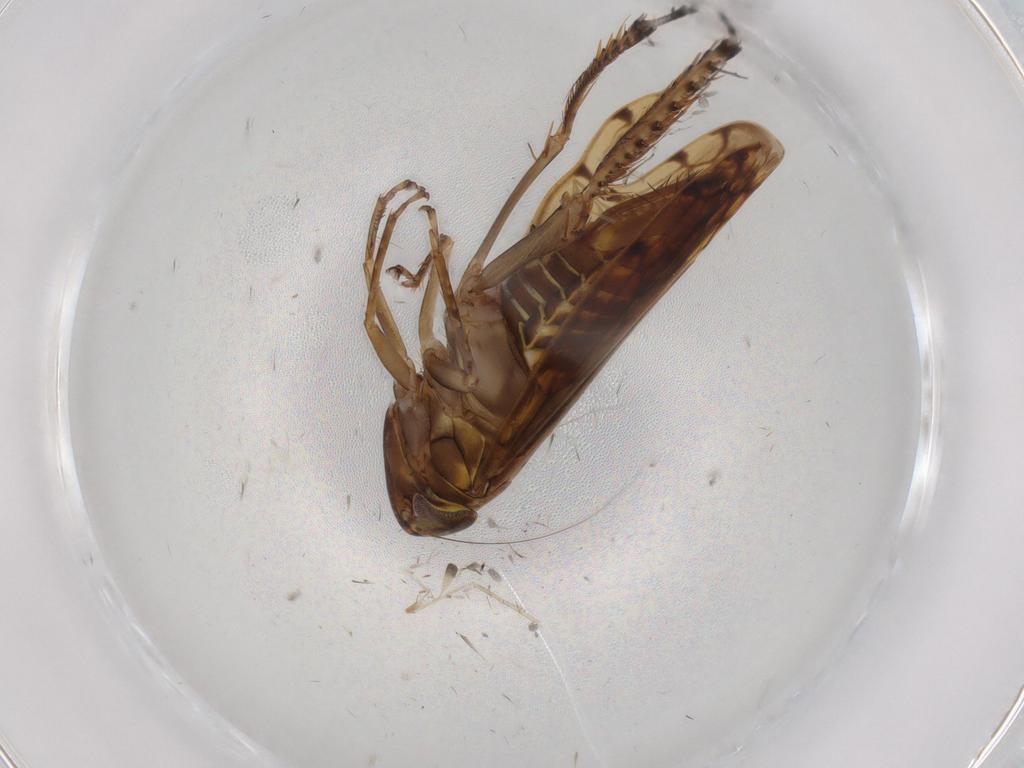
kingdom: Animalia
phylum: Arthropoda
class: Insecta
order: Hemiptera
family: Cicadellidae
